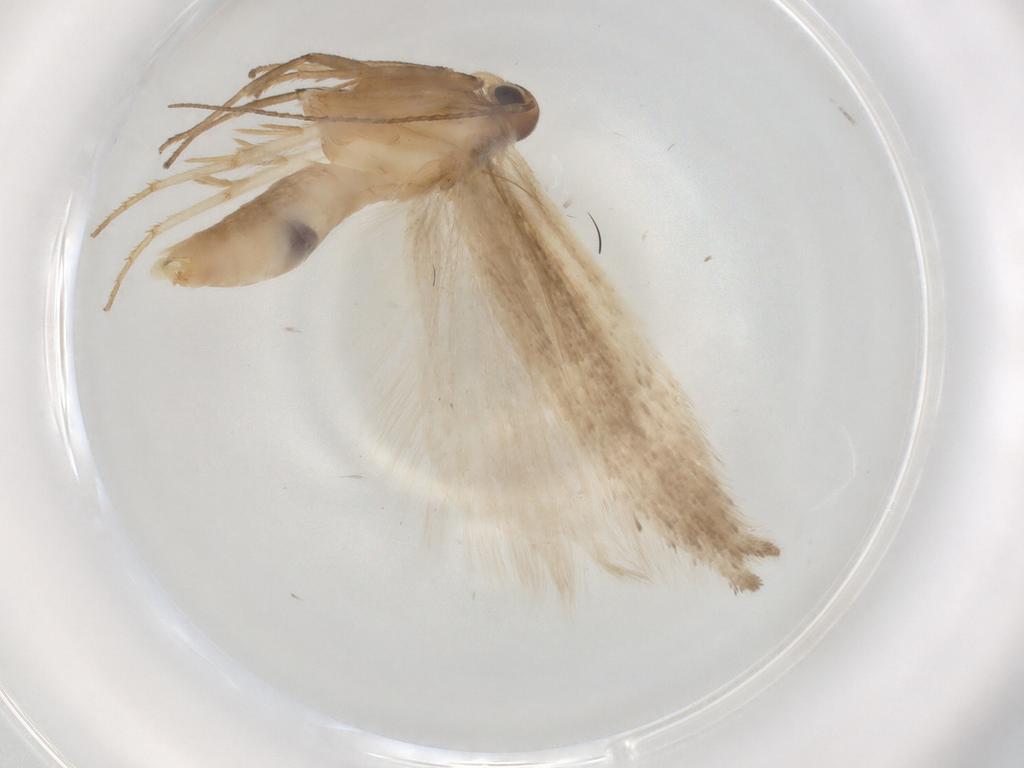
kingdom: Animalia
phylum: Arthropoda
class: Insecta
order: Lepidoptera
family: Gelechiidae
